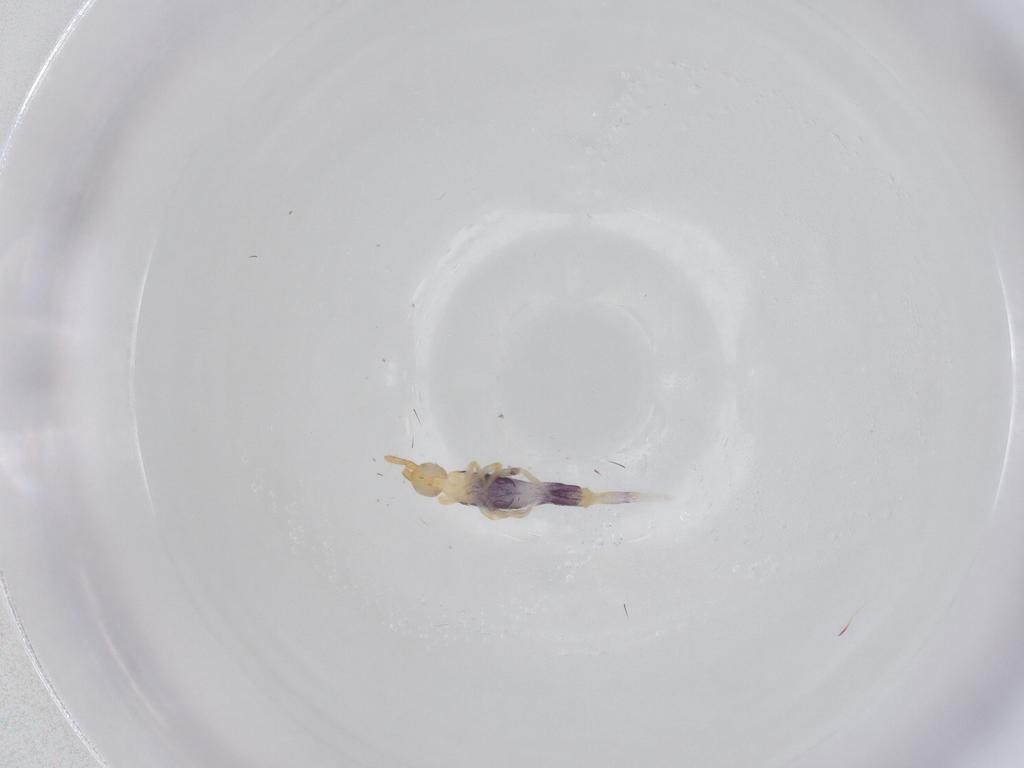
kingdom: Animalia
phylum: Arthropoda
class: Collembola
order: Entomobryomorpha
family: Entomobryidae
